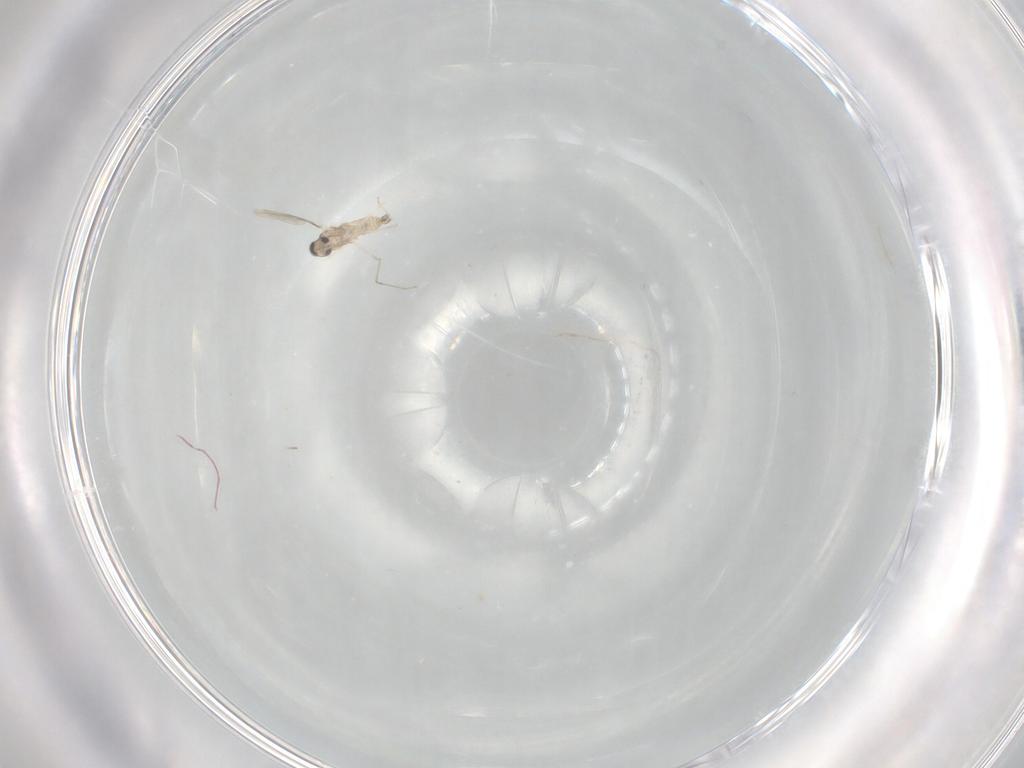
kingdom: Animalia
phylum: Arthropoda
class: Insecta
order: Diptera
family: Cecidomyiidae
